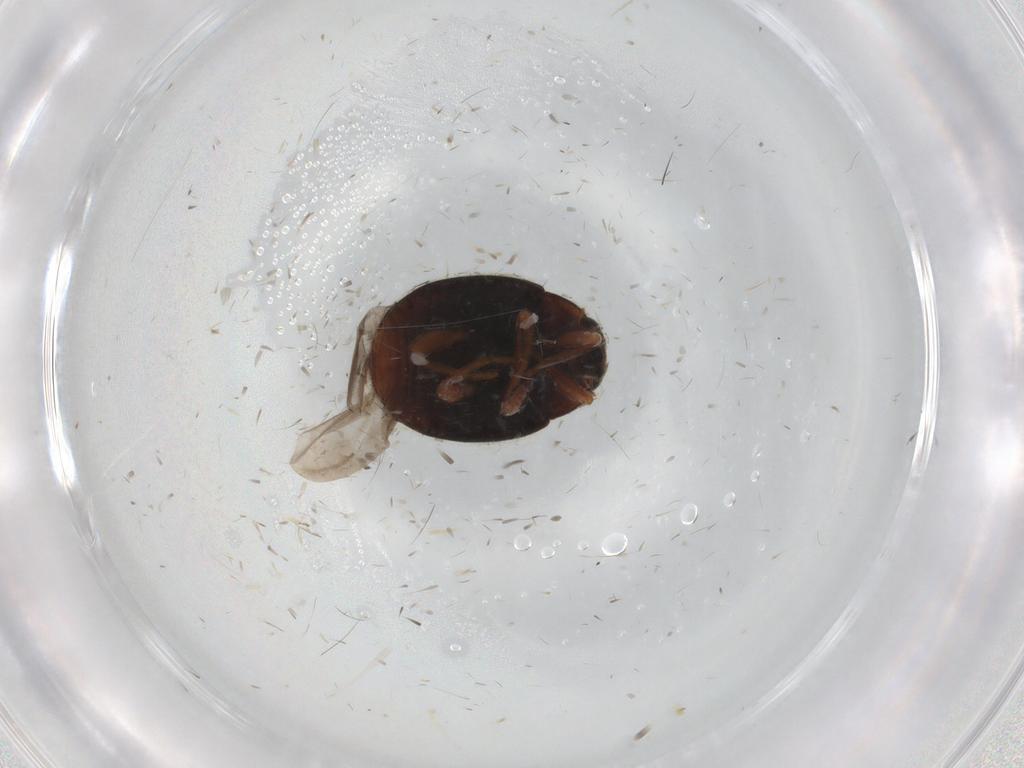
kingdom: Animalia
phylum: Arthropoda
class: Insecta
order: Coleoptera
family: Coccinellidae
